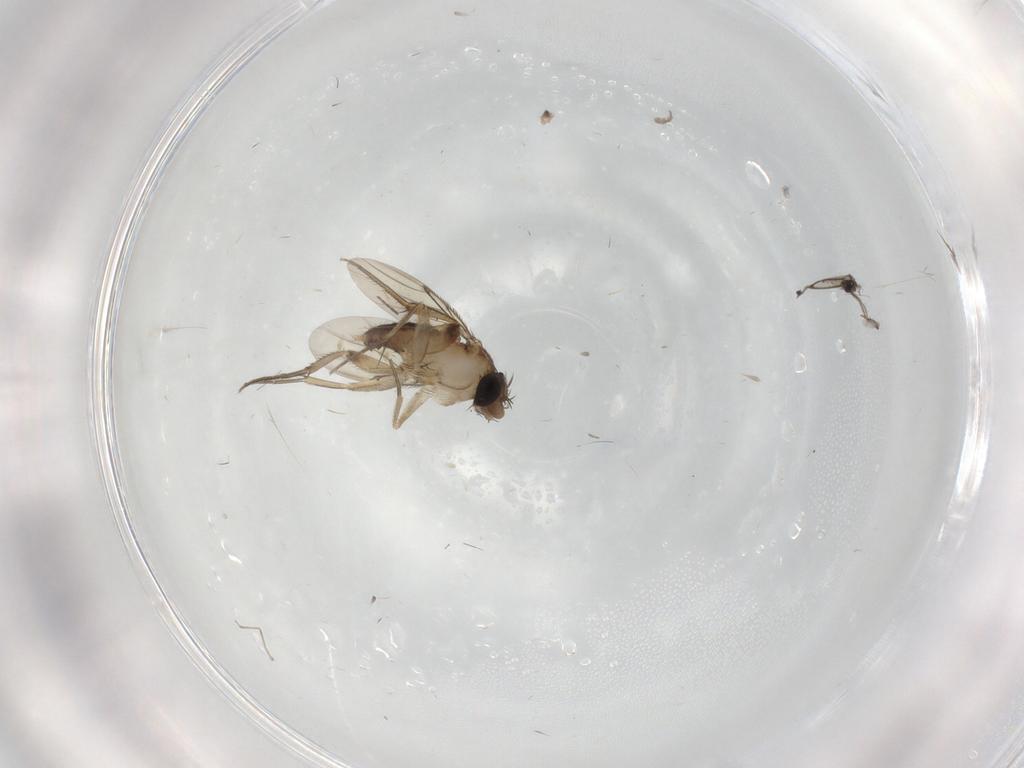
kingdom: Animalia
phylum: Arthropoda
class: Insecta
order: Diptera
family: Phoridae
